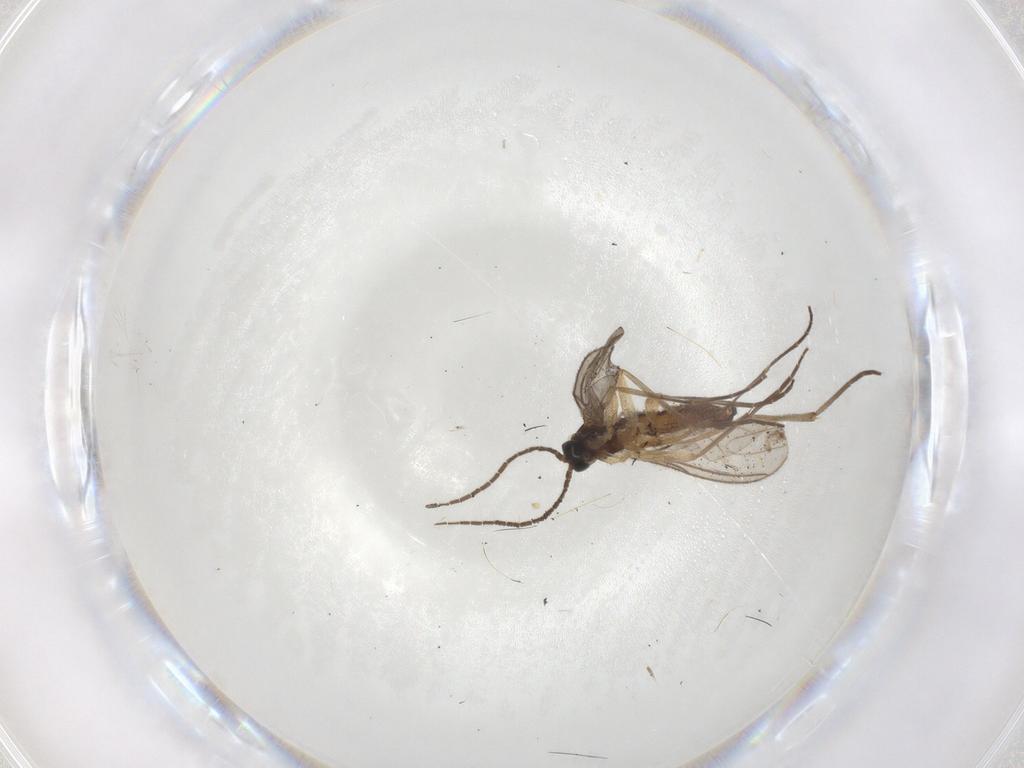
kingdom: Animalia
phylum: Arthropoda
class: Insecta
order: Diptera
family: Sciaridae
